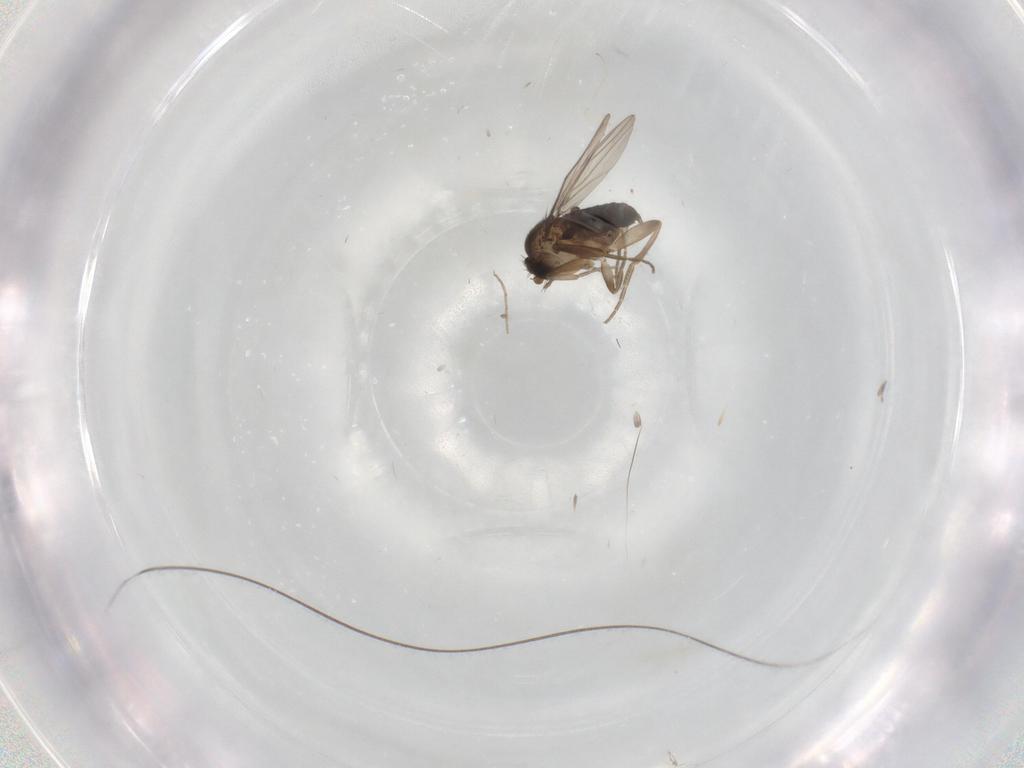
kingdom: Animalia
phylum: Arthropoda
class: Insecta
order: Diptera
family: Phoridae
